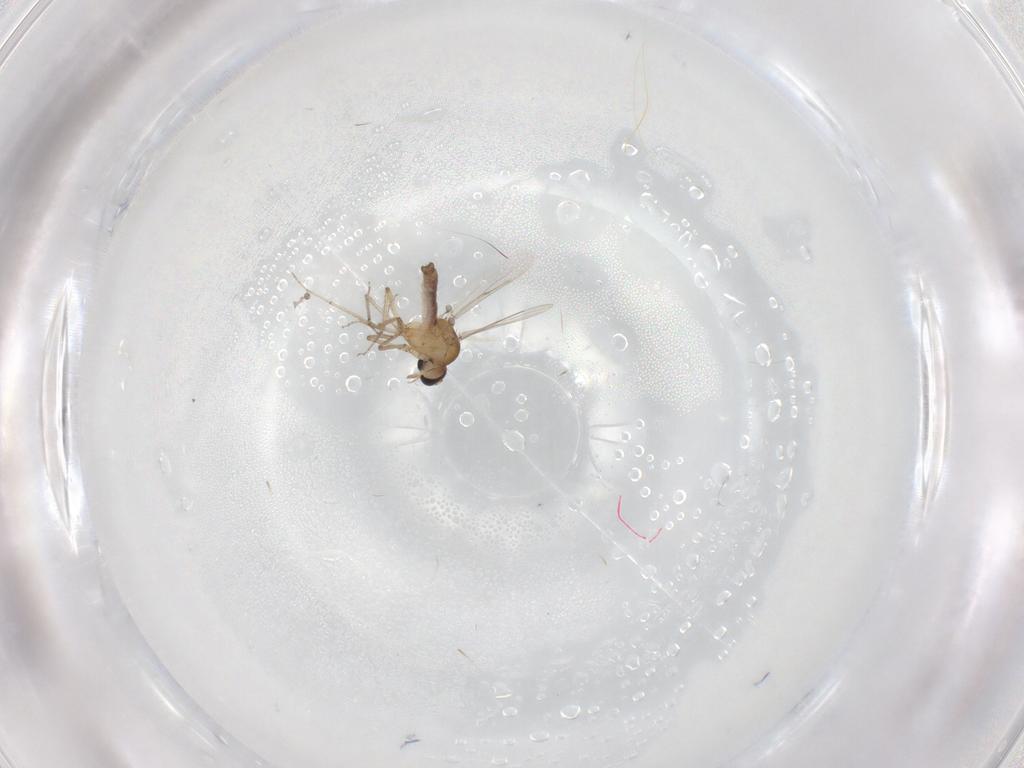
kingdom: Animalia
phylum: Arthropoda
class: Insecta
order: Diptera
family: Ceratopogonidae
